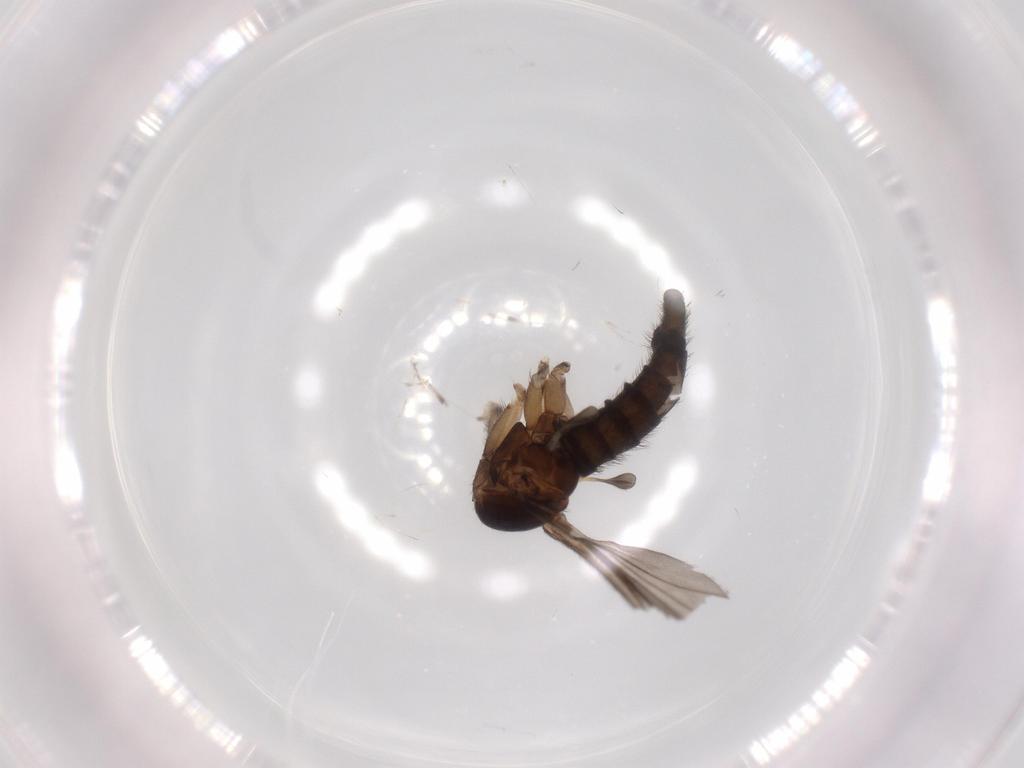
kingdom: Animalia
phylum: Arthropoda
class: Insecta
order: Diptera
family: Sciaridae
